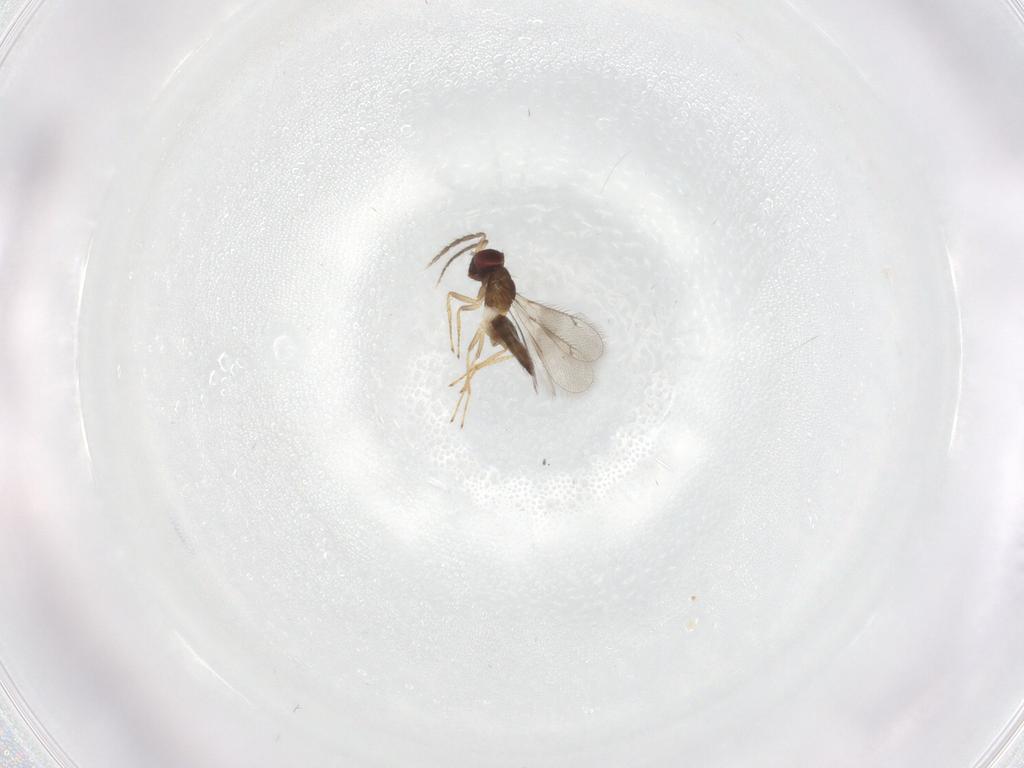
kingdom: Animalia
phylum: Arthropoda
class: Insecta
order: Hymenoptera
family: Eulophidae
